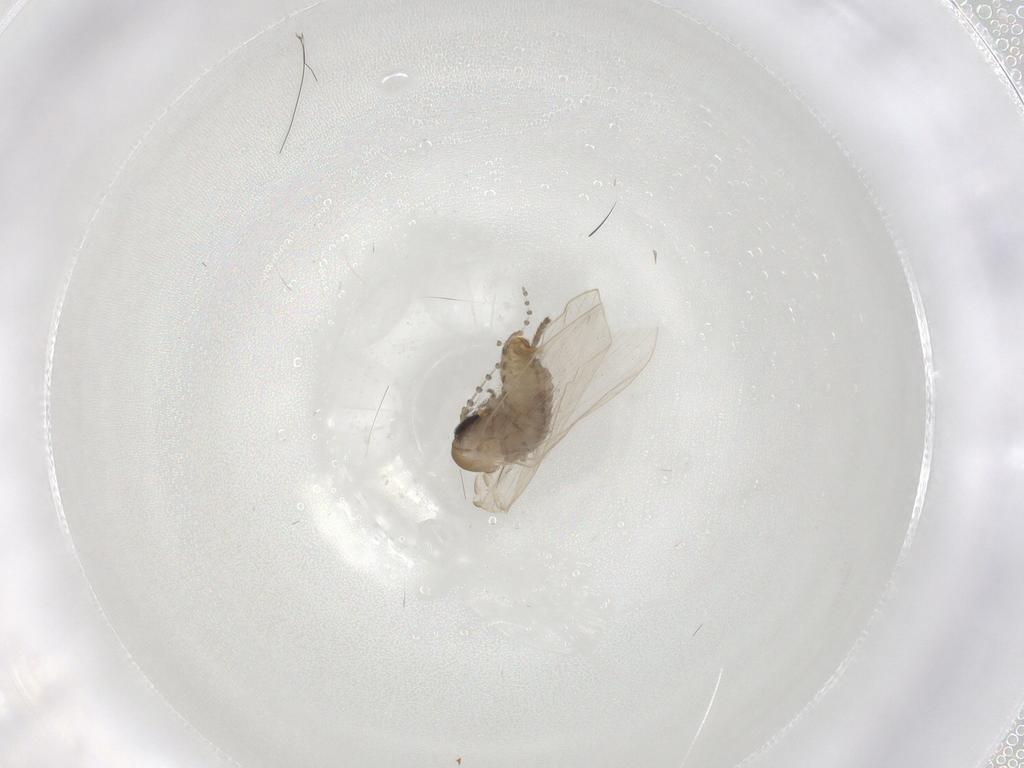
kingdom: Animalia
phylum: Arthropoda
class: Insecta
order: Diptera
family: Psychodidae
